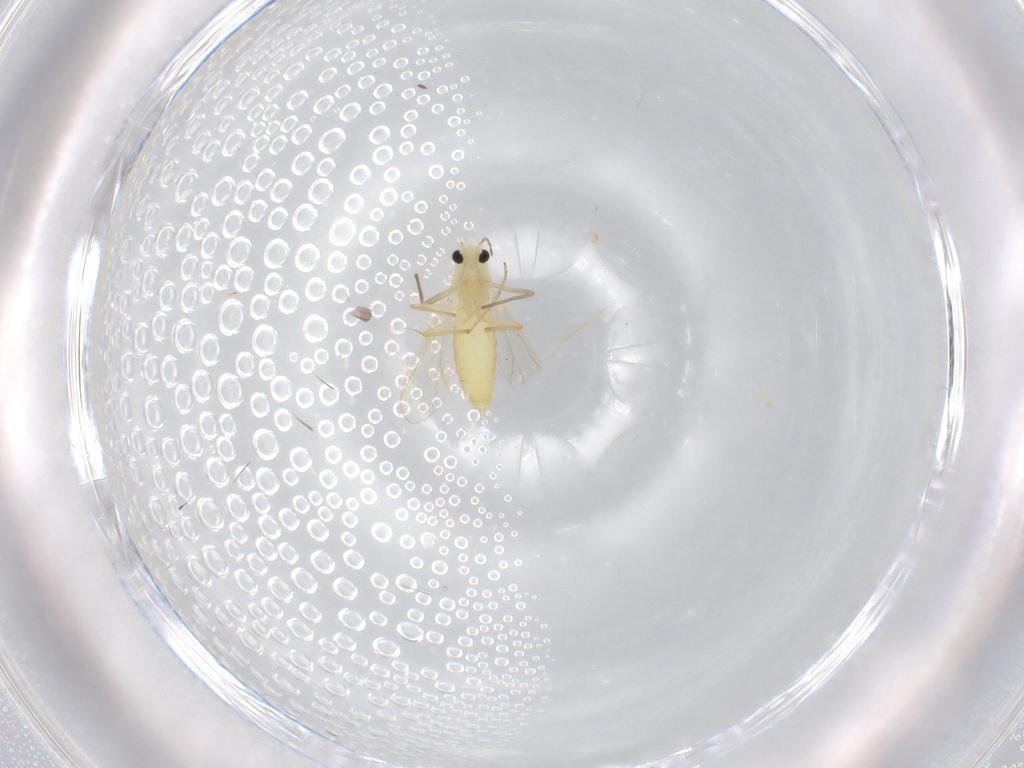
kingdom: Animalia
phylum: Arthropoda
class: Insecta
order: Diptera
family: Chironomidae
